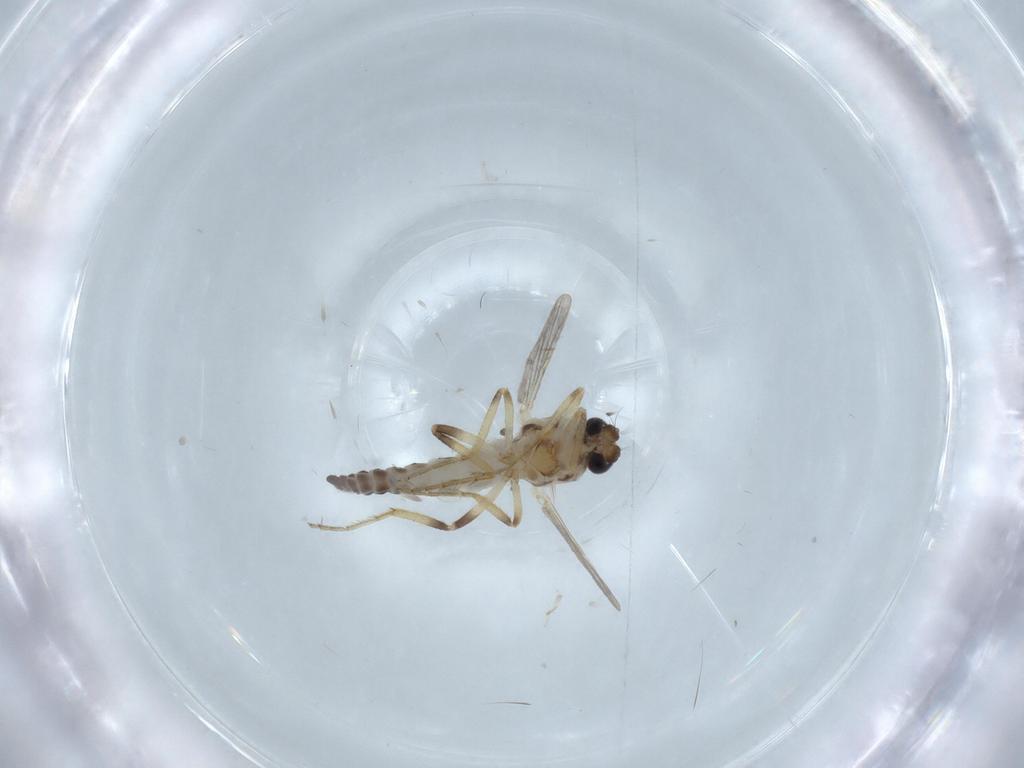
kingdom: Animalia
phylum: Arthropoda
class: Insecta
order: Diptera
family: Ceratopogonidae
